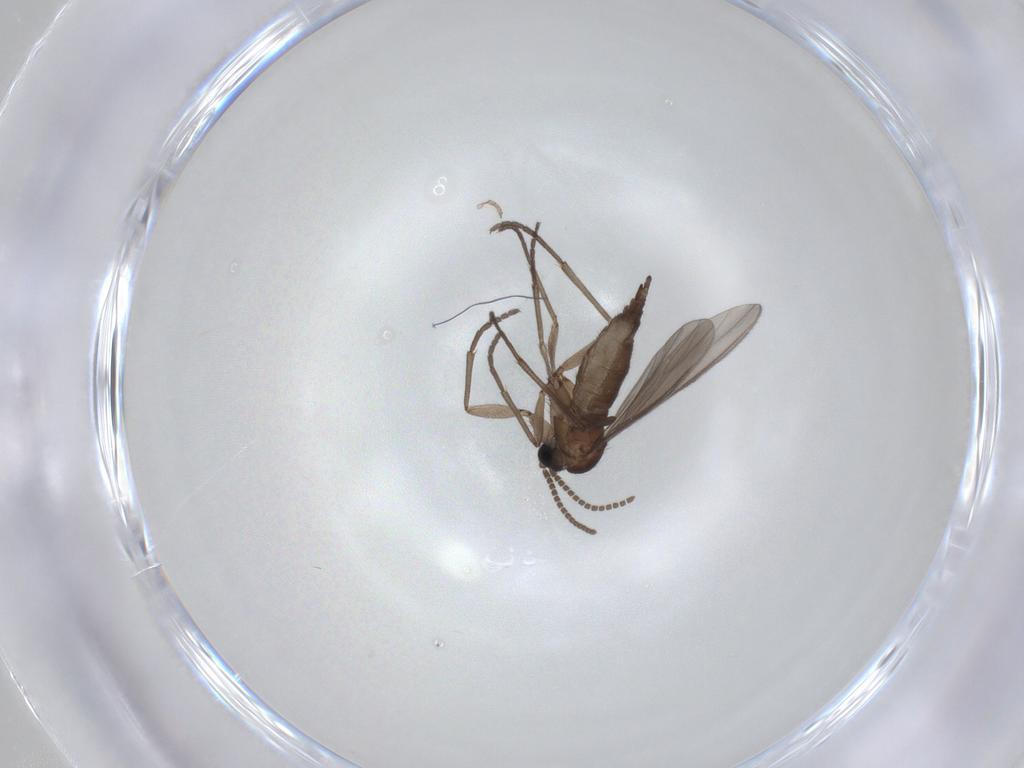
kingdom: Animalia
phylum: Arthropoda
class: Insecta
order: Diptera
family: Sciaridae
